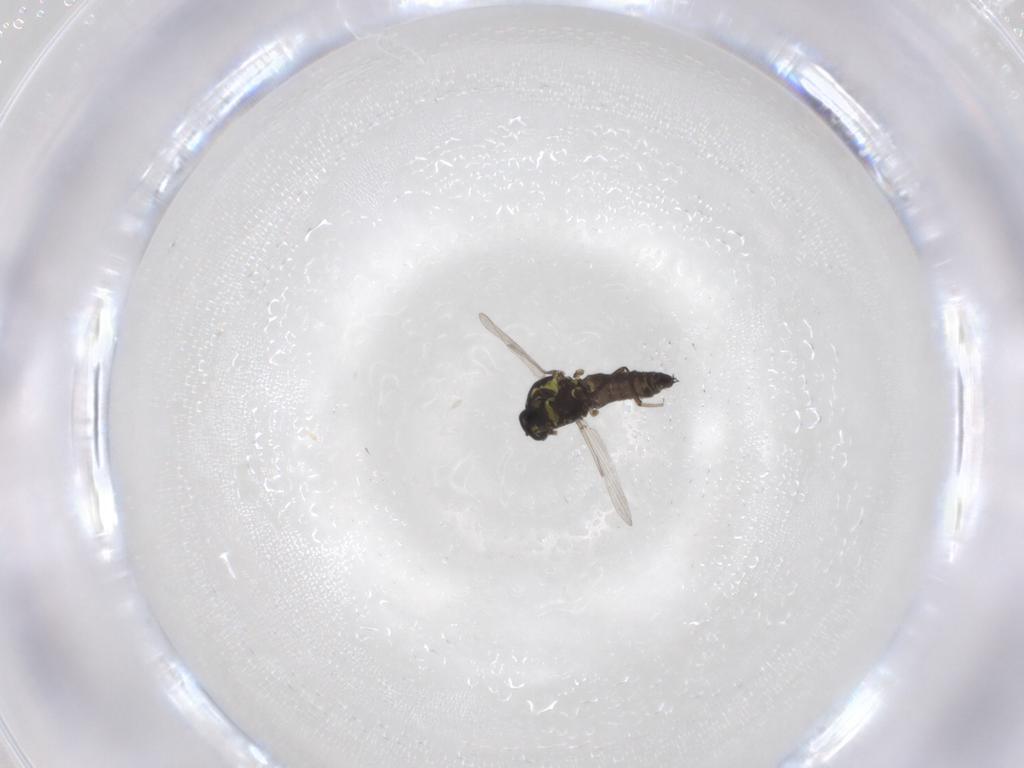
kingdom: Animalia
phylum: Arthropoda
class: Insecta
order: Diptera
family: Ceratopogonidae
